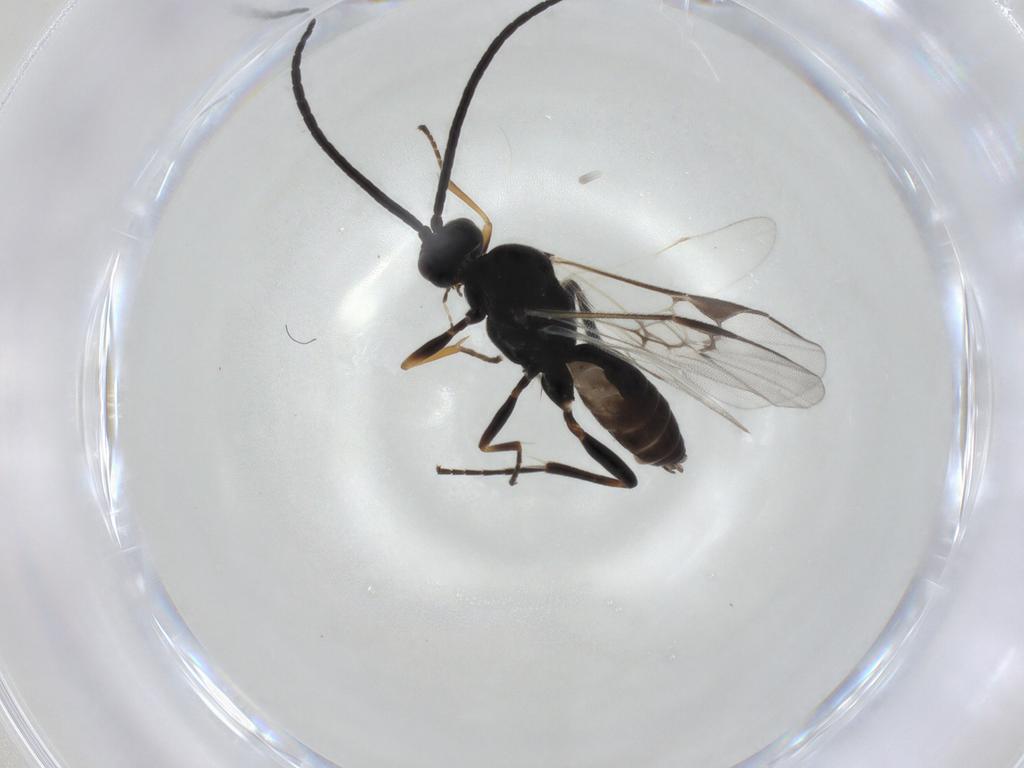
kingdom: Animalia
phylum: Arthropoda
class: Insecta
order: Hymenoptera
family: Braconidae
